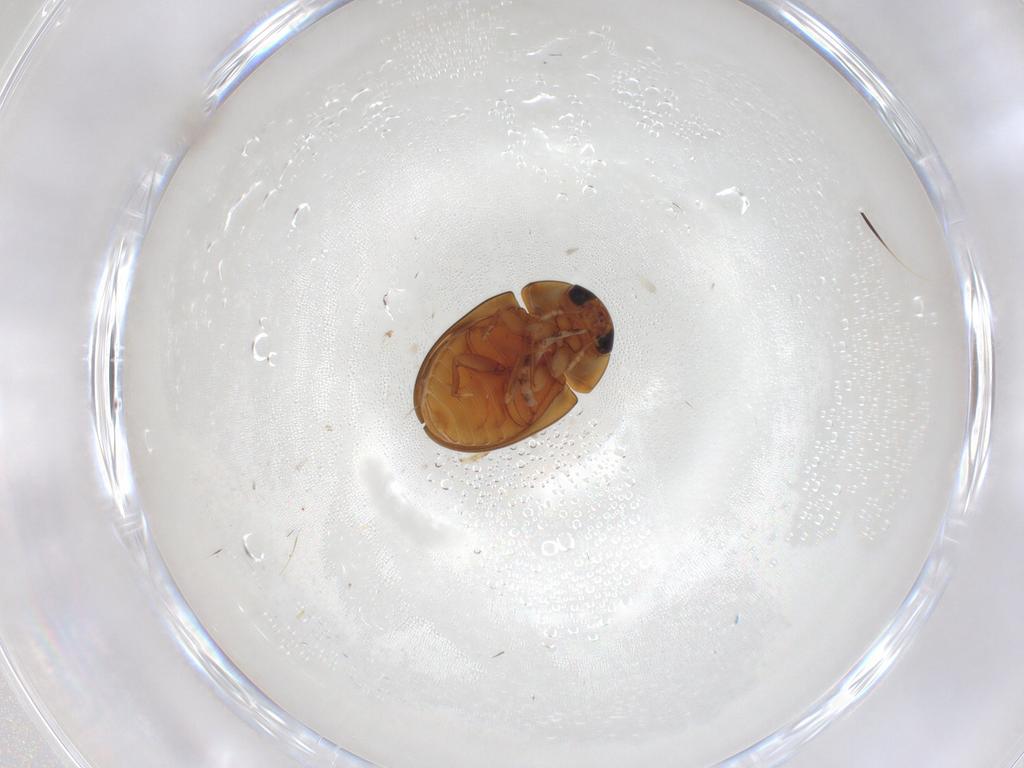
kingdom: Animalia
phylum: Arthropoda
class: Insecta
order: Coleoptera
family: Phalacridae
